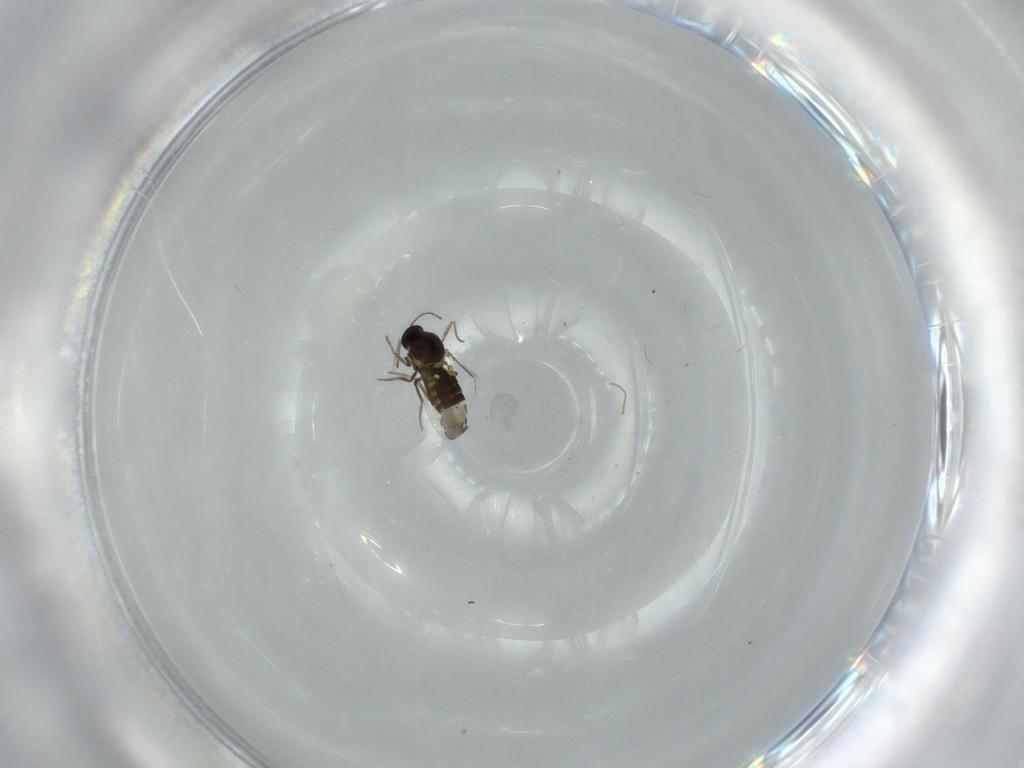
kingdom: Animalia
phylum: Arthropoda
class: Insecta
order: Diptera
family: Ceratopogonidae
